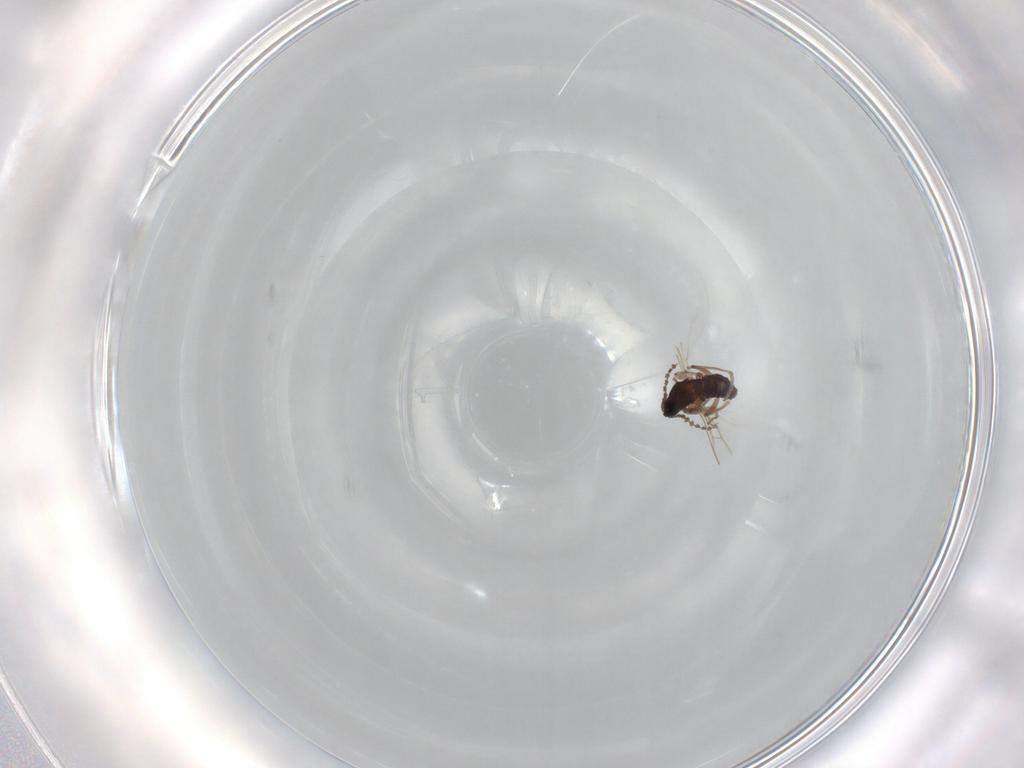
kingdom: Animalia
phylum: Arthropoda
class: Insecta
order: Diptera
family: Cecidomyiidae
